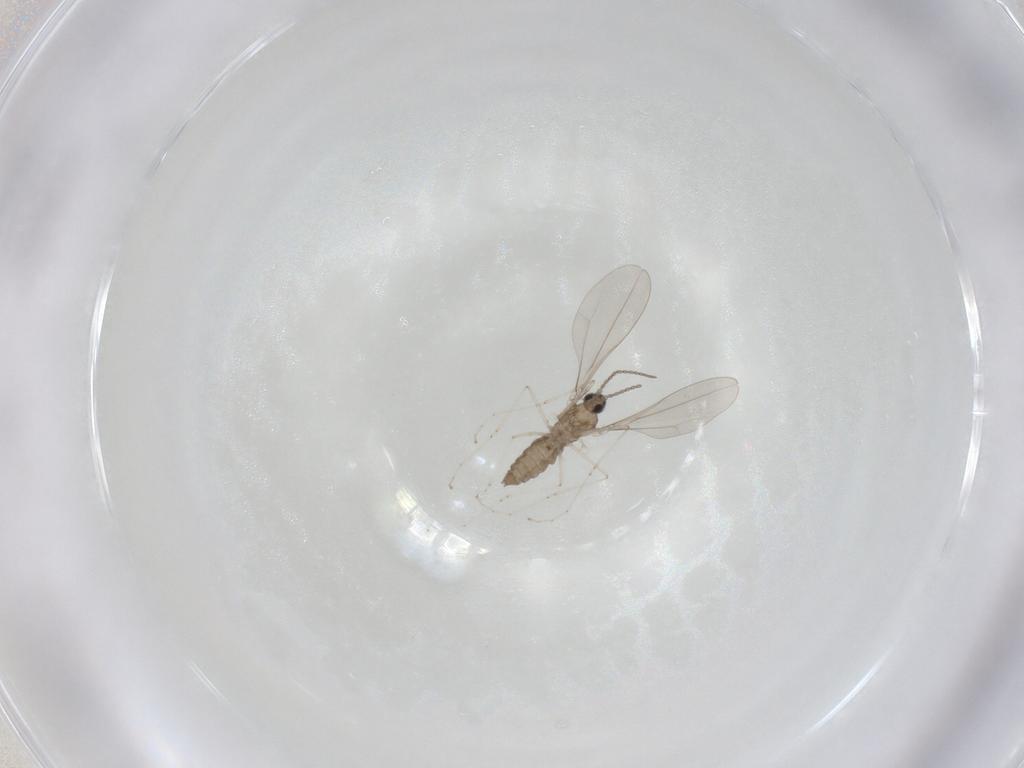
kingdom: Animalia
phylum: Arthropoda
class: Insecta
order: Diptera
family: Cecidomyiidae
